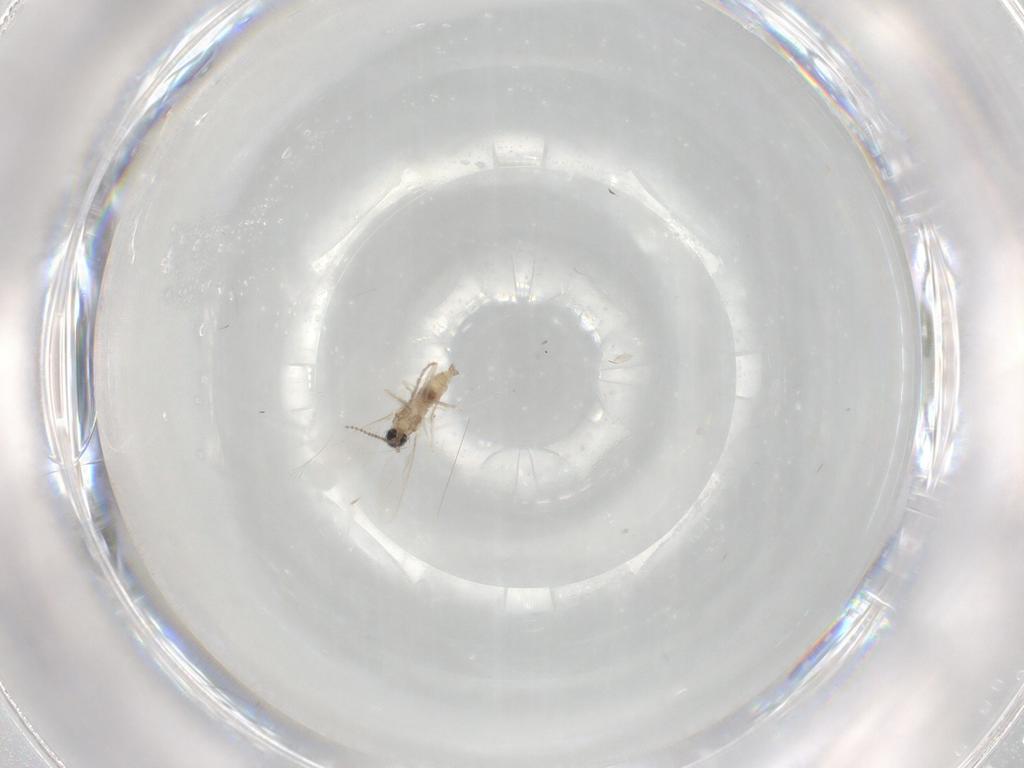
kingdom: Animalia
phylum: Arthropoda
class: Insecta
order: Diptera
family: Cecidomyiidae
